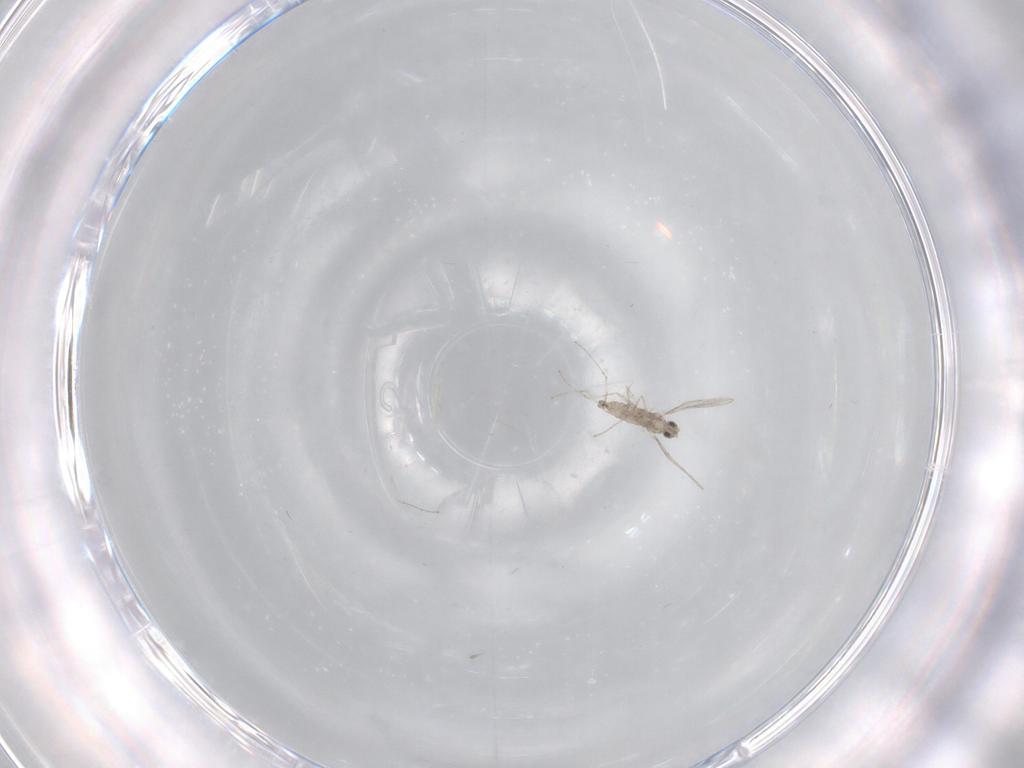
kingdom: Animalia
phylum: Arthropoda
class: Insecta
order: Diptera
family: Cecidomyiidae
